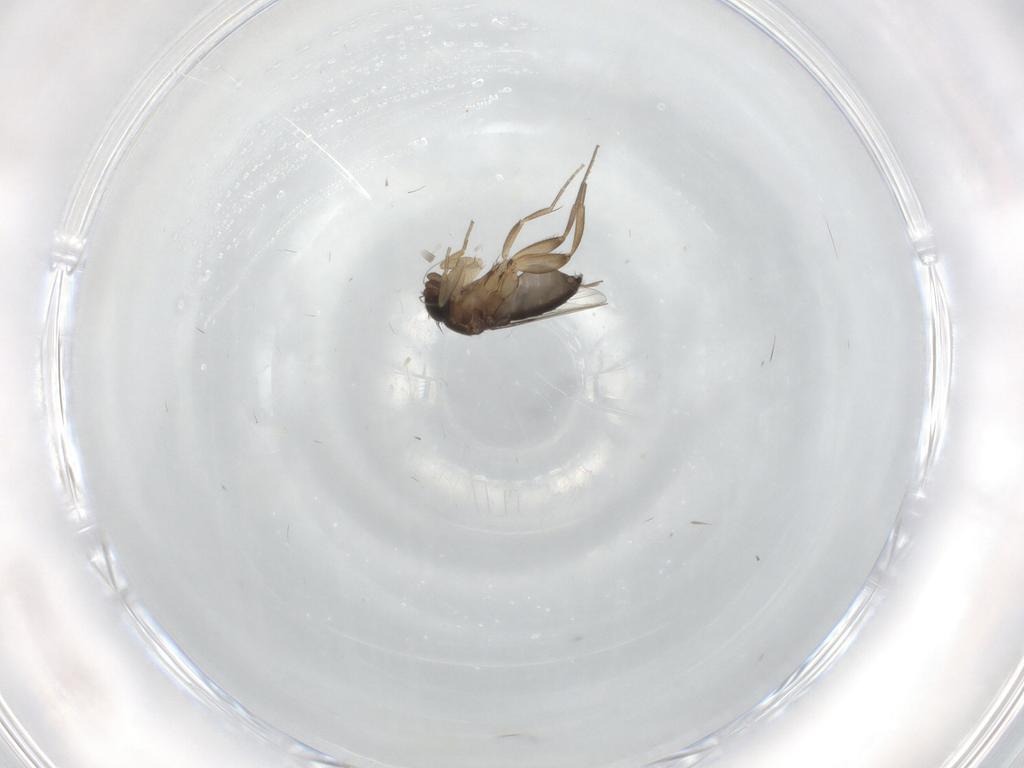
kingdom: Animalia
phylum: Arthropoda
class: Insecta
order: Diptera
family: Phoridae
